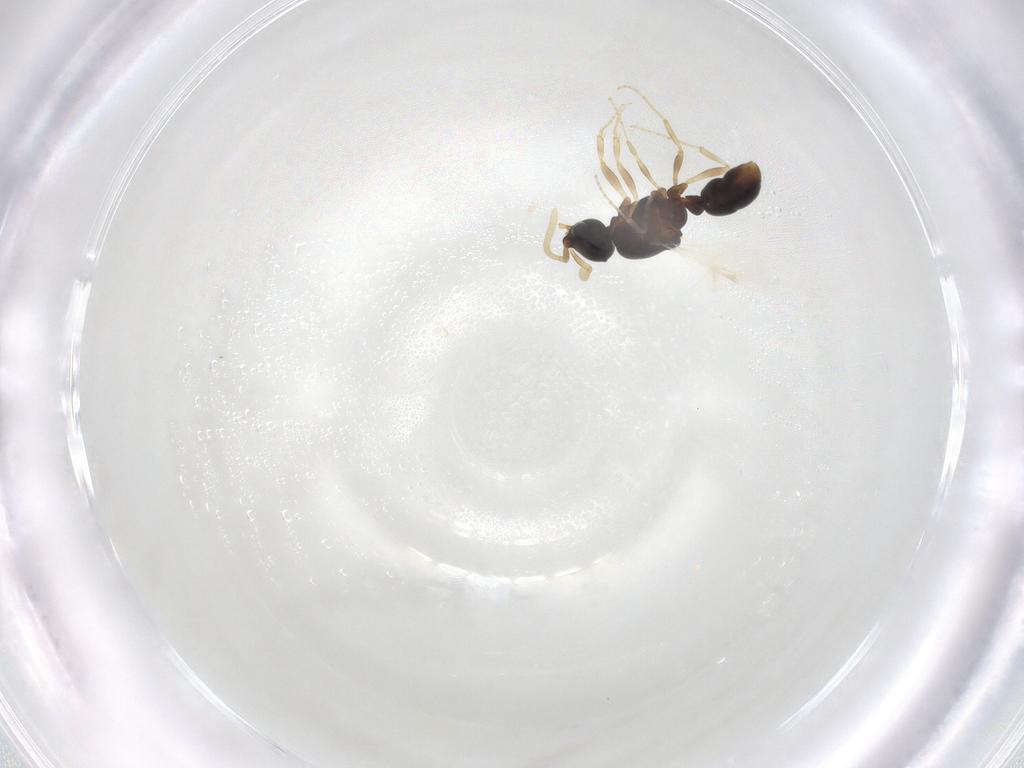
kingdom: Animalia
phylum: Arthropoda
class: Insecta
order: Hymenoptera
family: Formicidae
